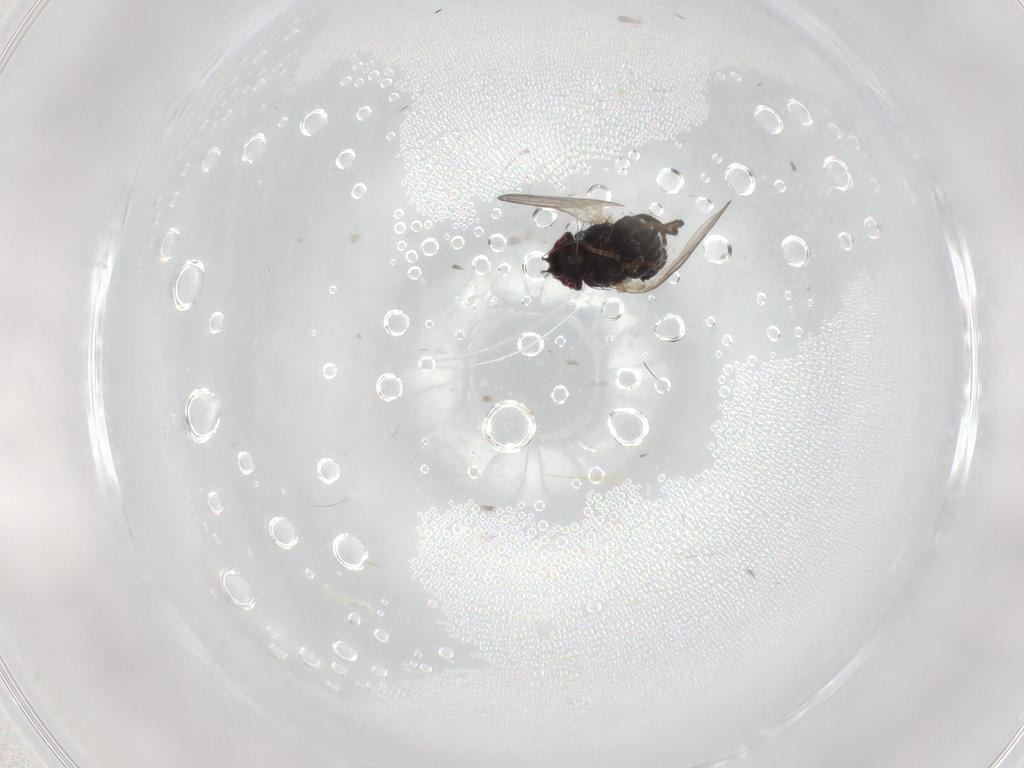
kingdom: Animalia
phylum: Arthropoda
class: Insecta
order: Diptera
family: Agromyzidae
